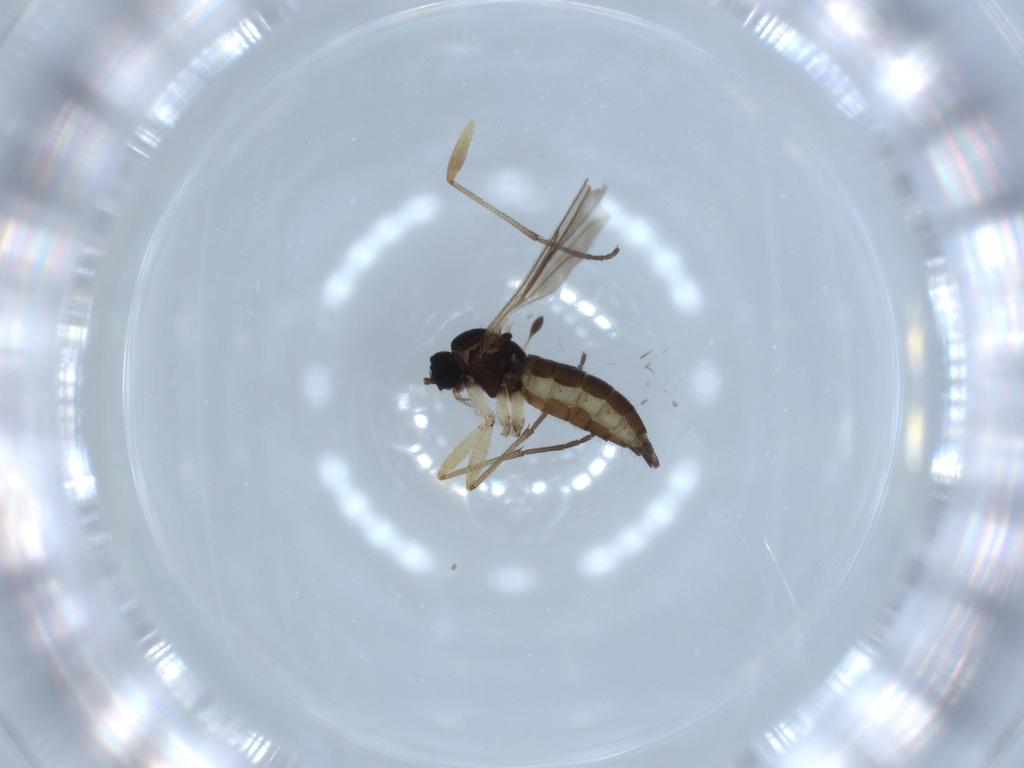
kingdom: Animalia
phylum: Arthropoda
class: Insecta
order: Diptera
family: Sciaridae
